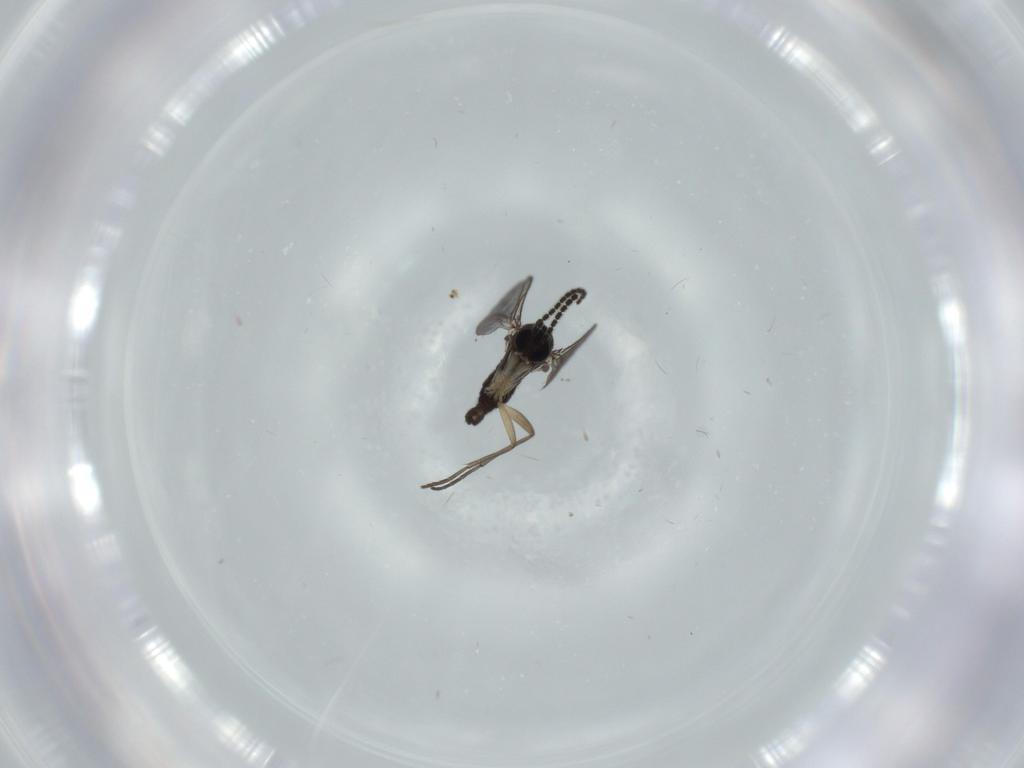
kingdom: Animalia
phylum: Arthropoda
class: Insecta
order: Diptera
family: Sciaridae
